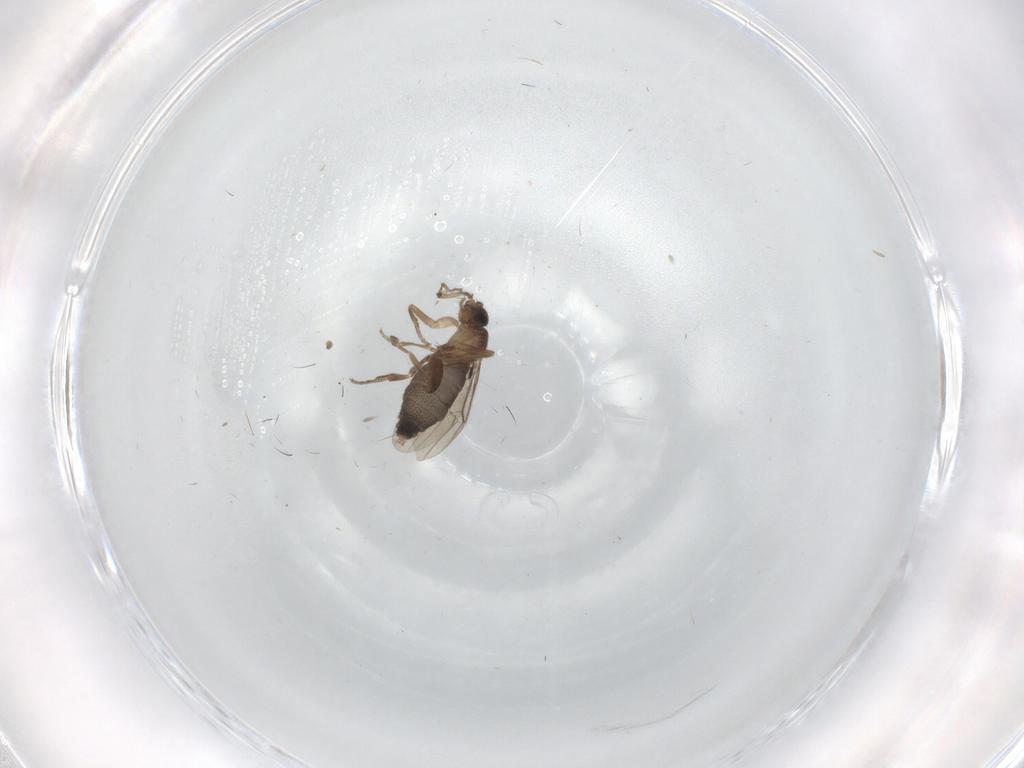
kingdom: Animalia
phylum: Arthropoda
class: Insecta
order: Diptera
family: Phoridae
